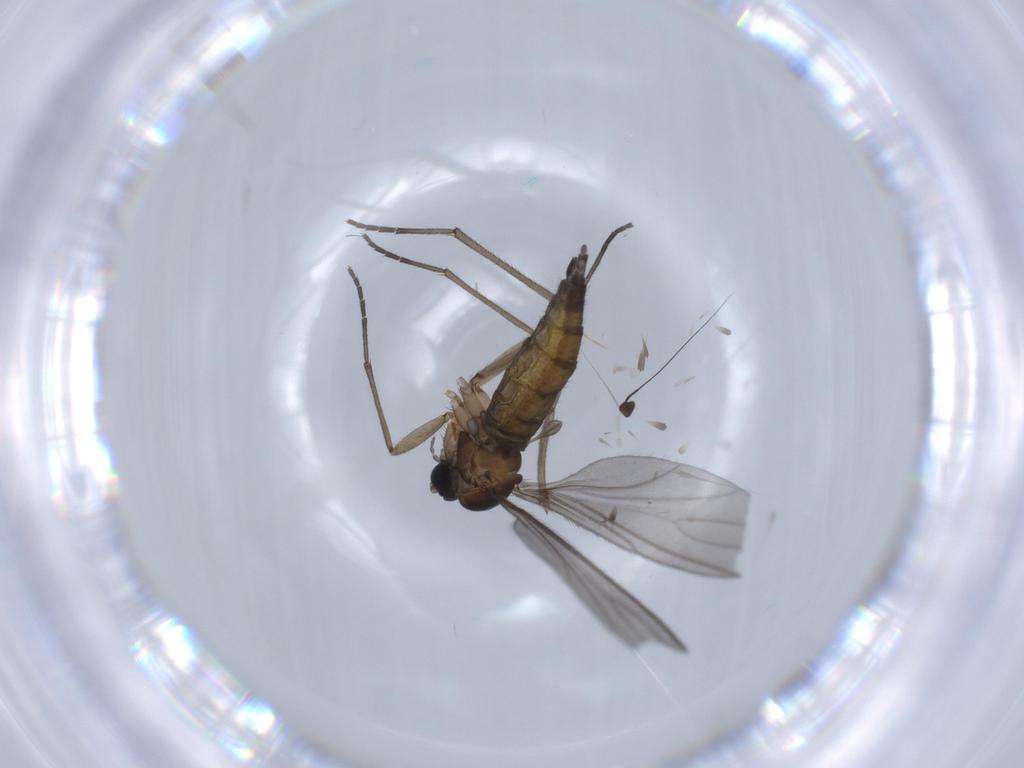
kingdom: Animalia
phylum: Arthropoda
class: Insecta
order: Diptera
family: Sciaridae
